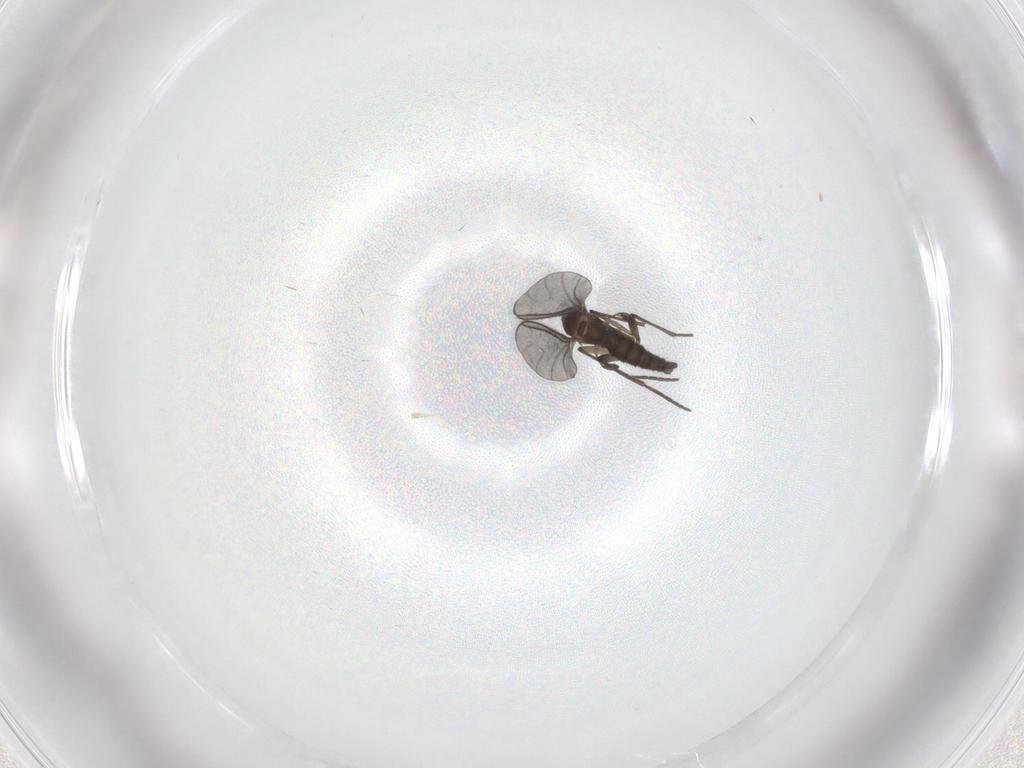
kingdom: Animalia
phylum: Arthropoda
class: Insecta
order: Diptera
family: Ceratopogonidae
